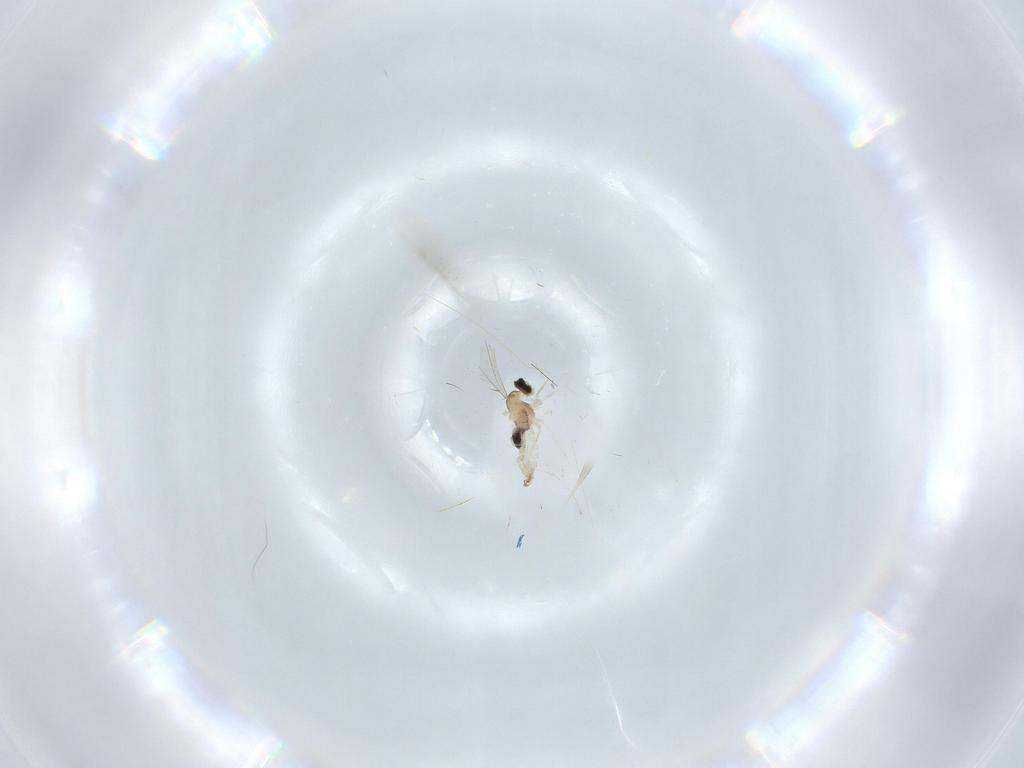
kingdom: Animalia
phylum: Arthropoda
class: Insecta
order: Diptera
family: Cecidomyiidae
